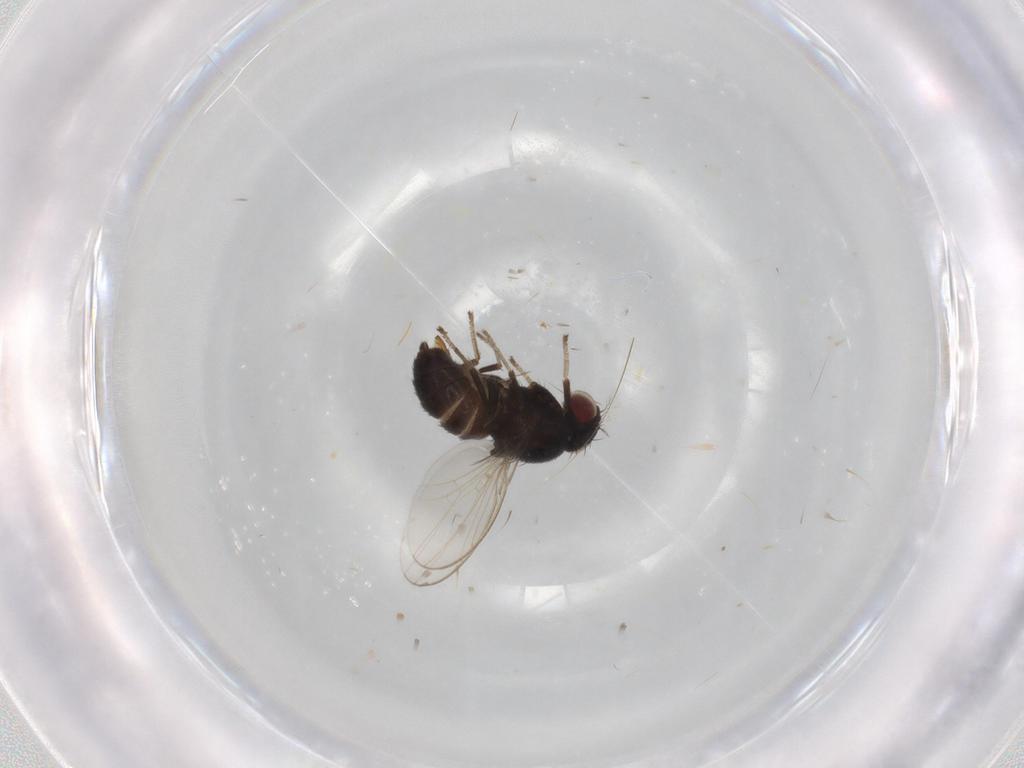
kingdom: Animalia
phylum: Arthropoda
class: Insecta
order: Diptera
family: Drosophilidae
